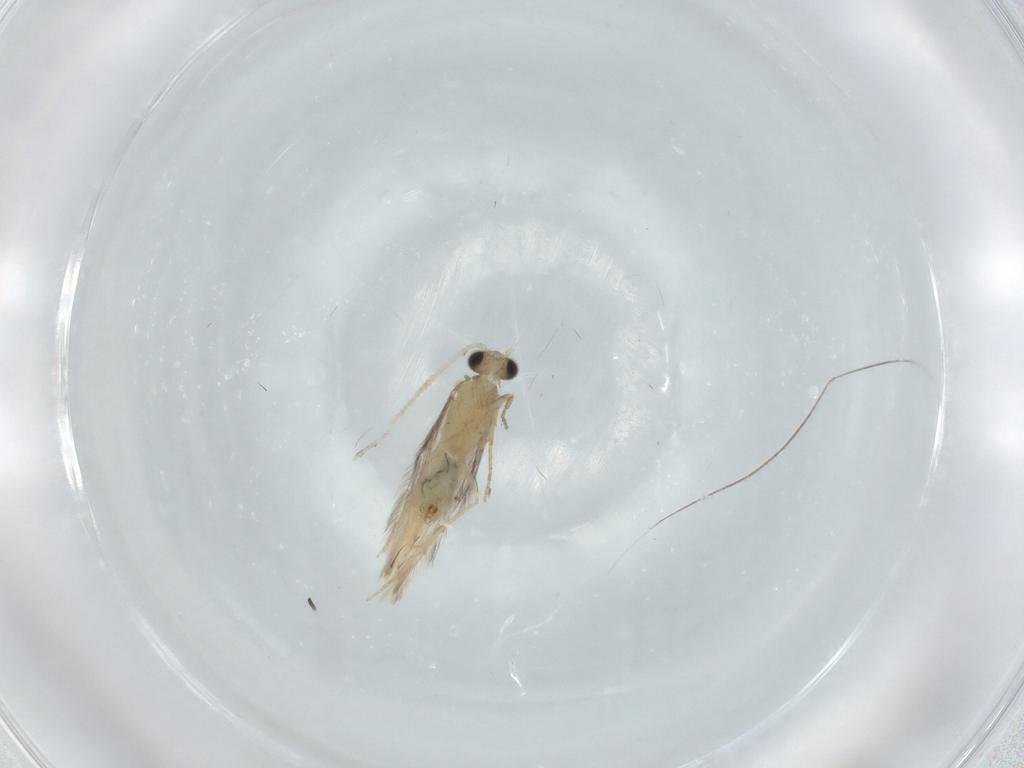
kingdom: Animalia
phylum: Arthropoda
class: Insecta
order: Trichoptera
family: Hydroptilidae
